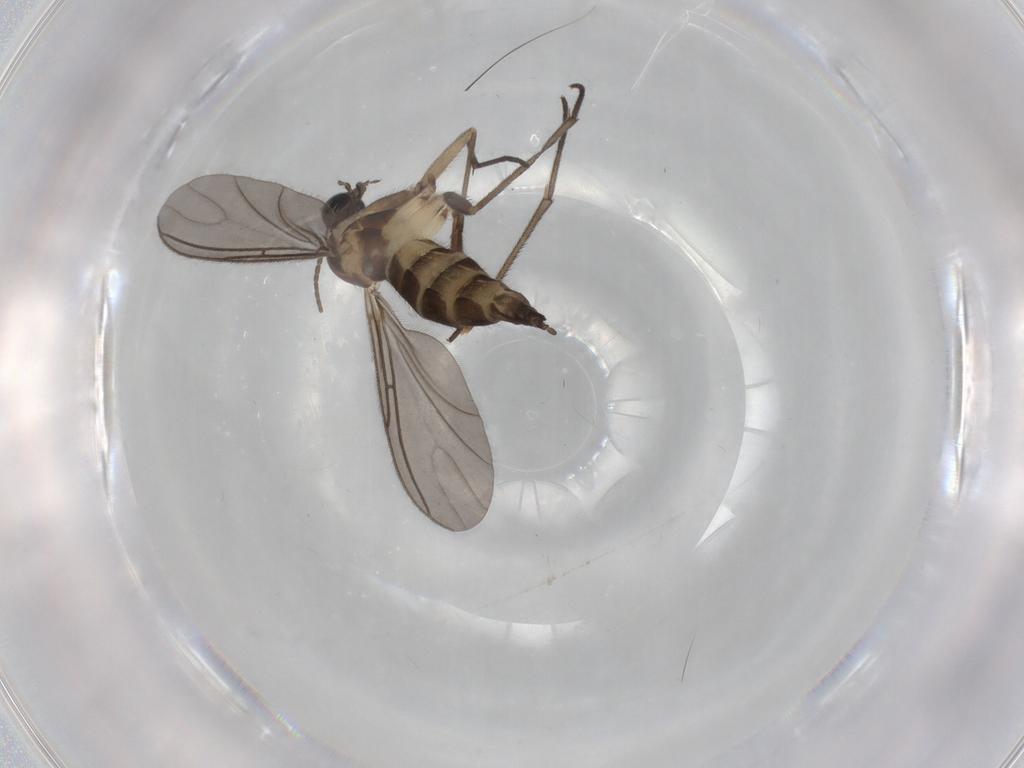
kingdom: Animalia
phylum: Arthropoda
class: Insecta
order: Diptera
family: Sciaridae
